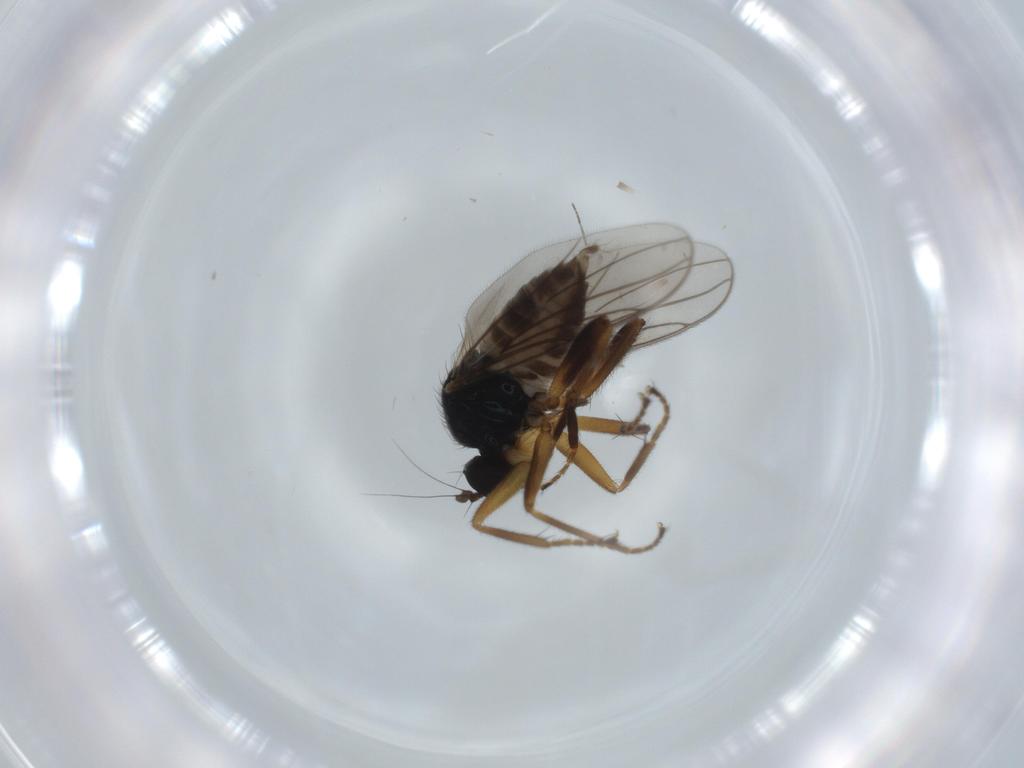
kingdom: Animalia
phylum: Arthropoda
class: Insecta
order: Diptera
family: Hybotidae
